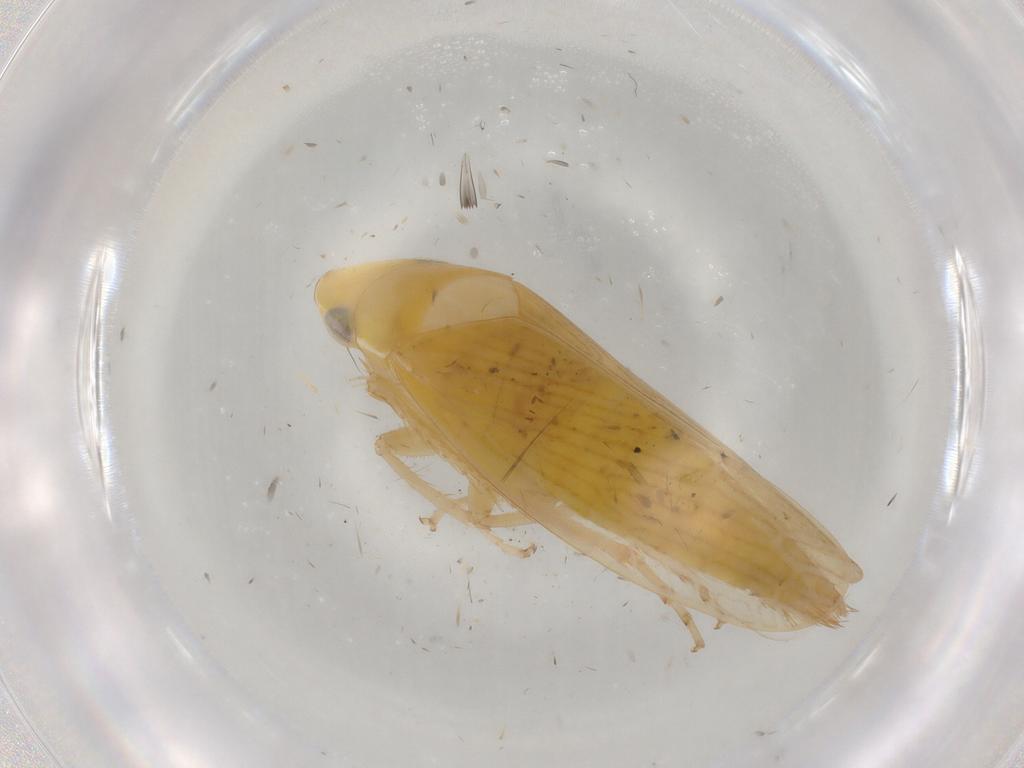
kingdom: Animalia
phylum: Arthropoda
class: Insecta
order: Hemiptera
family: Cicadellidae
